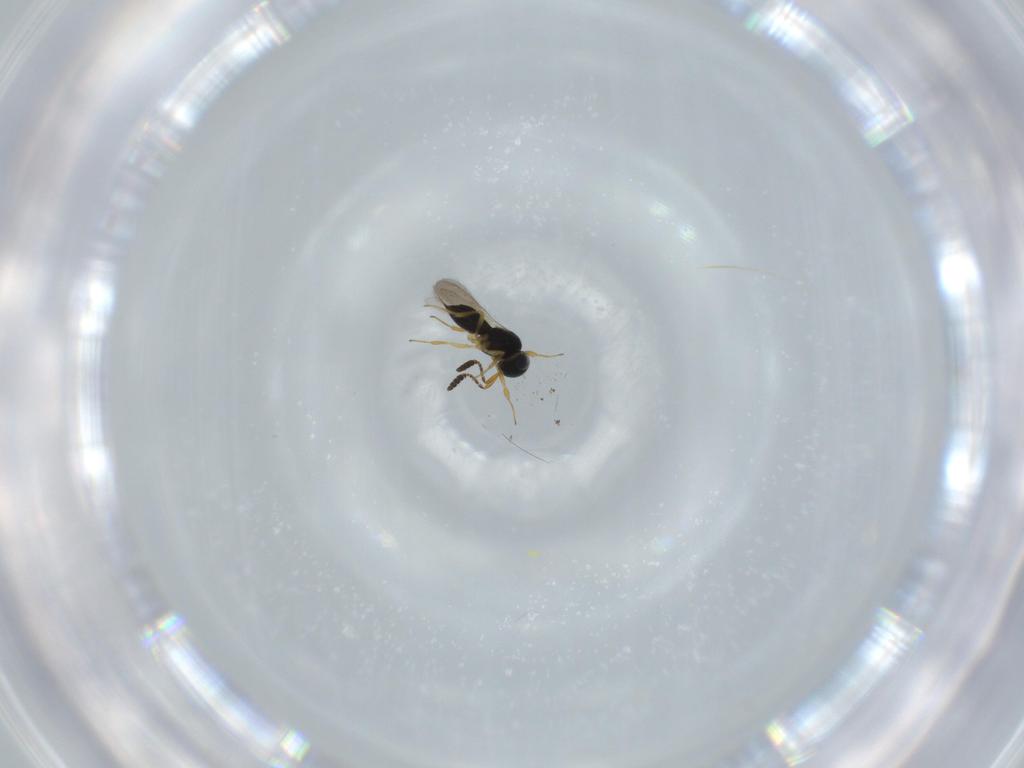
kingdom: Animalia
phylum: Arthropoda
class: Insecta
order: Hymenoptera
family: Scelionidae
